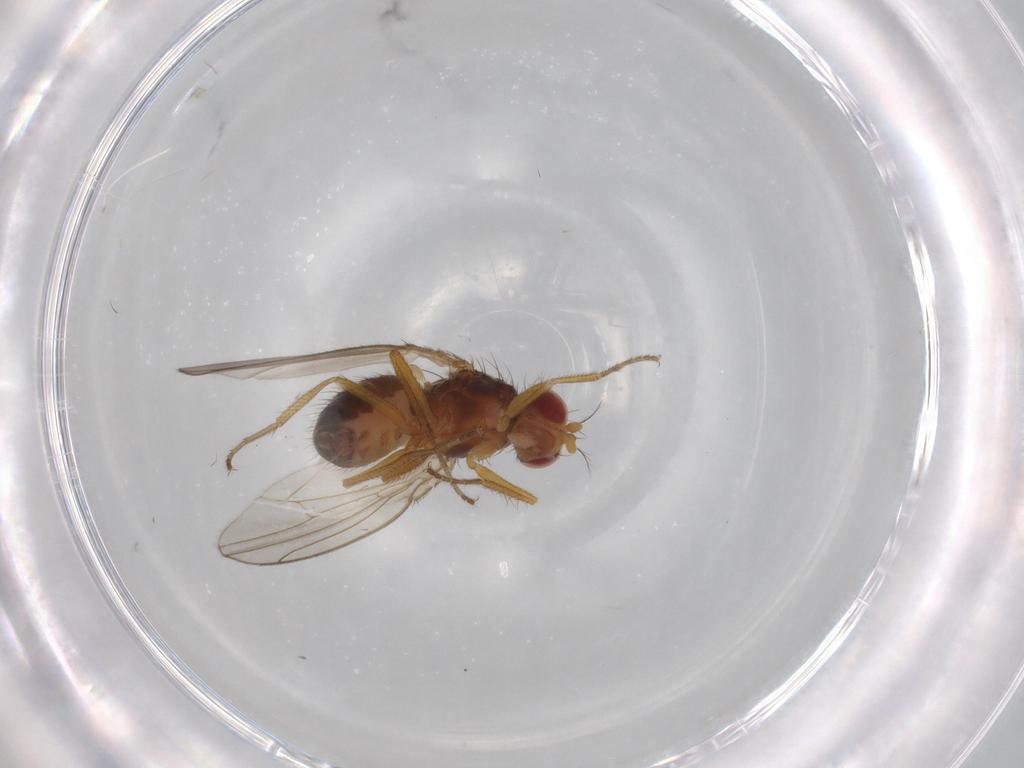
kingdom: Animalia
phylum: Arthropoda
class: Insecta
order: Diptera
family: Drosophilidae
